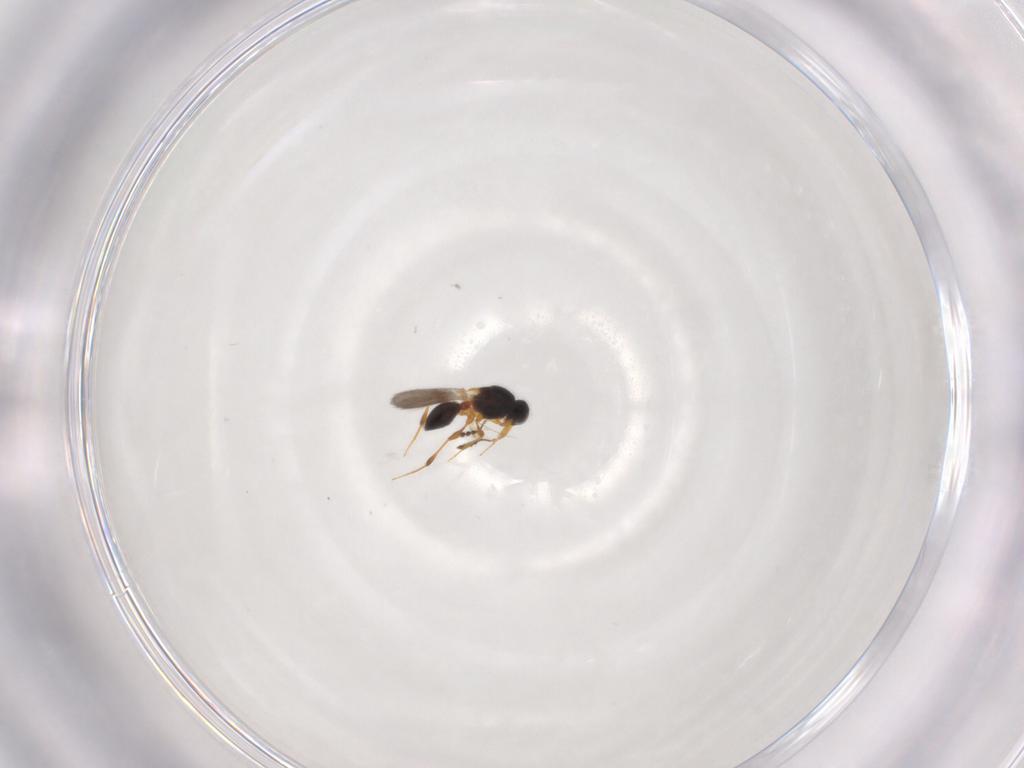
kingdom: Animalia
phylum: Arthropoda
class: Insecta
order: Hymenoptera
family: Platygastridae
